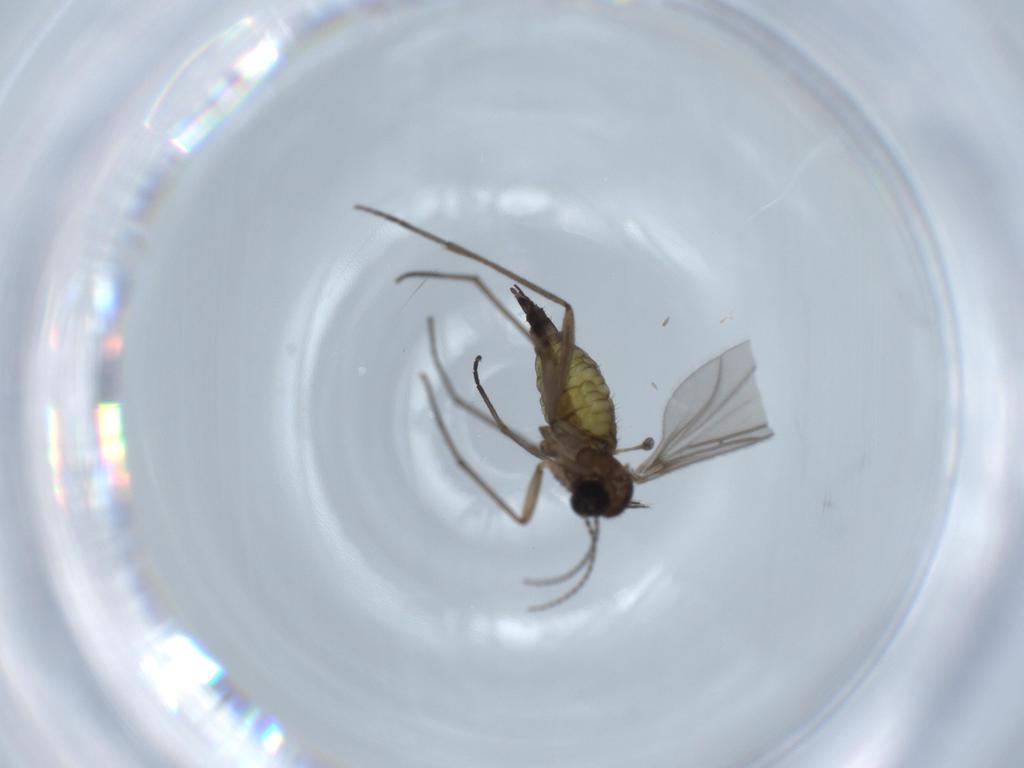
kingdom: Animalia
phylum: Arthropoda
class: Insecta
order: Diptera
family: Sciaridae
